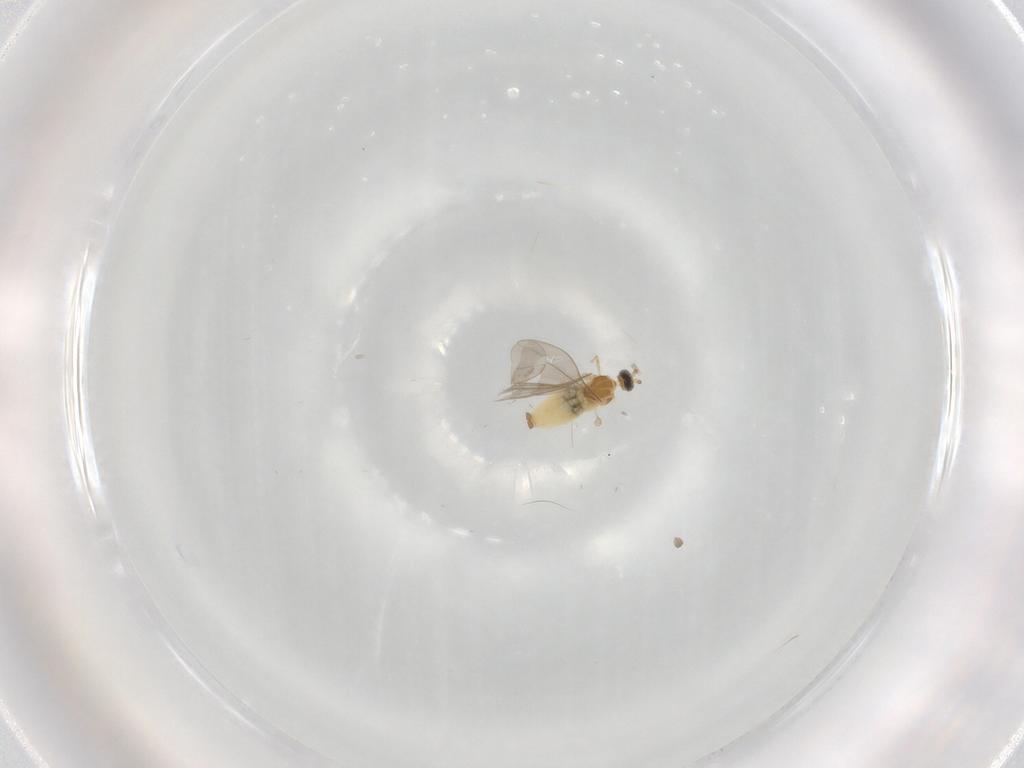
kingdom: Animalia
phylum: Arthropoda
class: Insecta
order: Diptera
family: Cecidomyiidae
